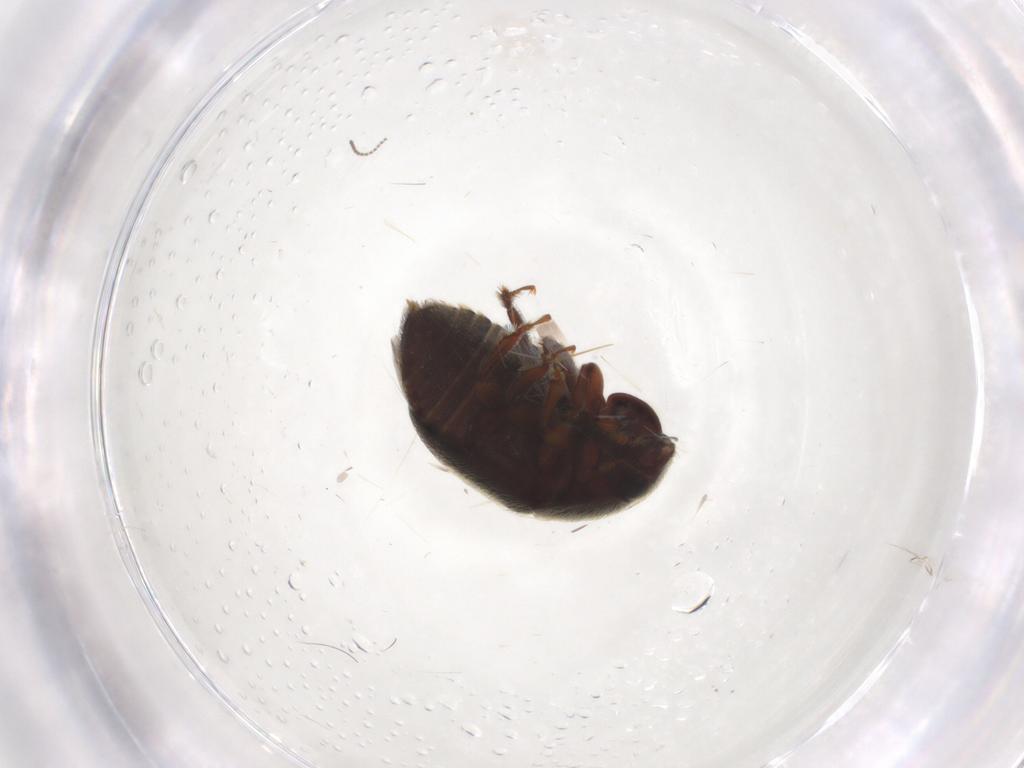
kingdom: Animalia
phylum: Arthropoda
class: Insecta
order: Coleoptera
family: Nitidulidae
